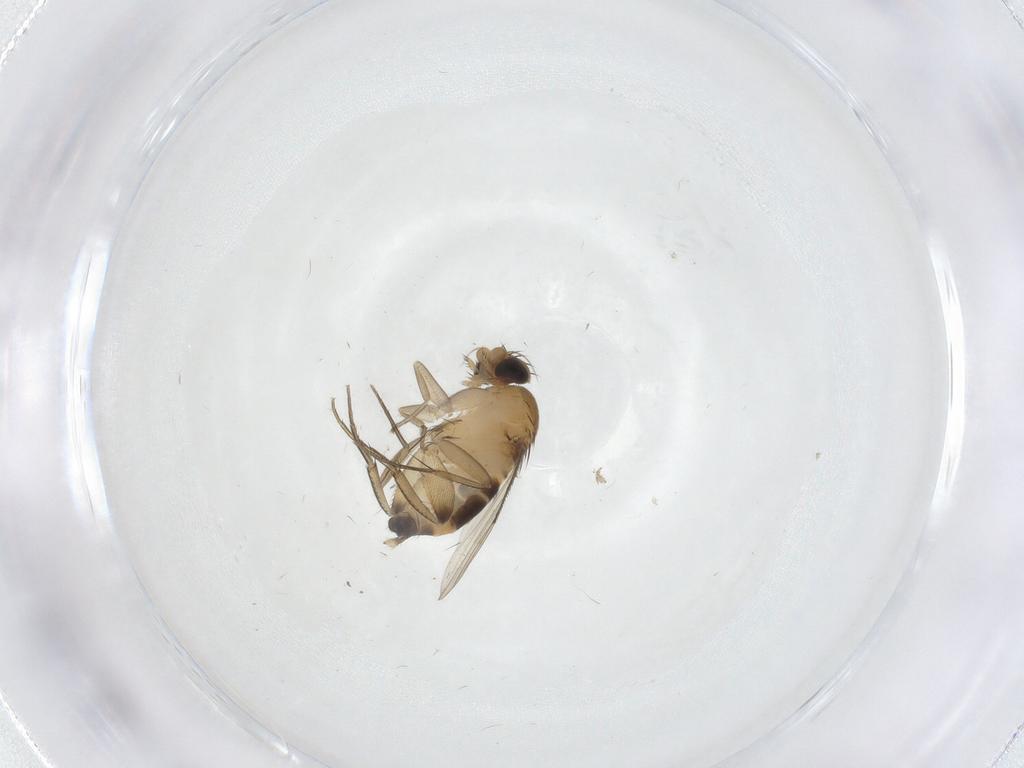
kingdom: Animalia
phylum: Arthropoda
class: Insecta
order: Diptera
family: Phoridae
